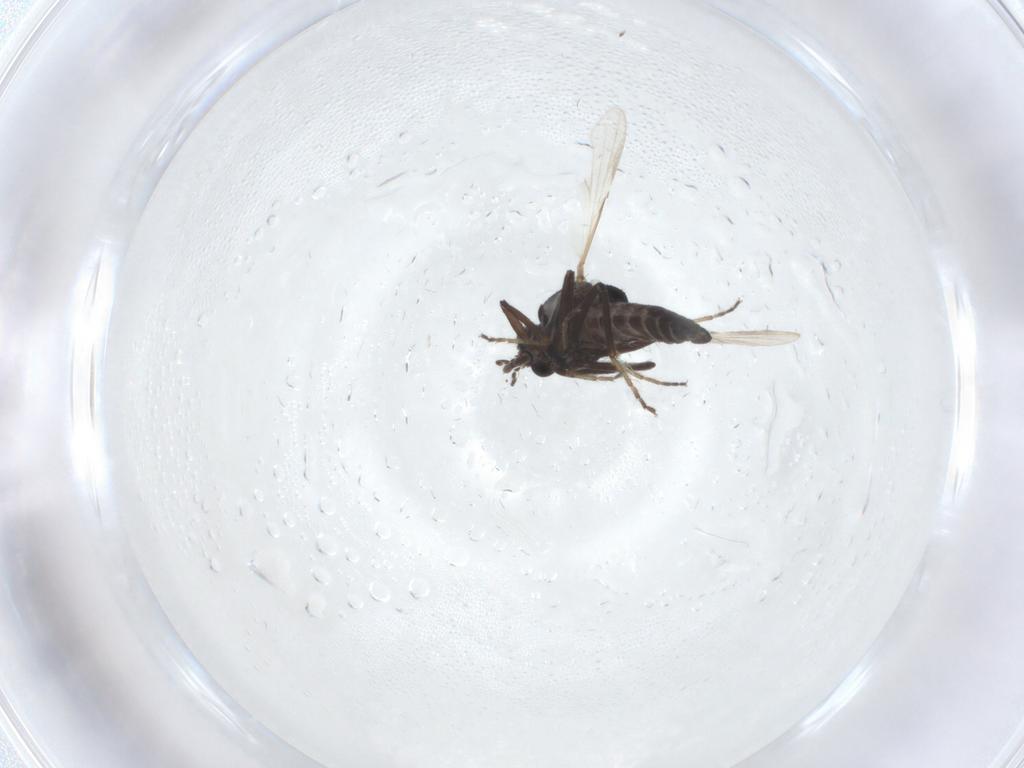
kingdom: Animalia
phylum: Arthropoda
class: Insecta
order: Diptera
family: Ceratopogonidae
